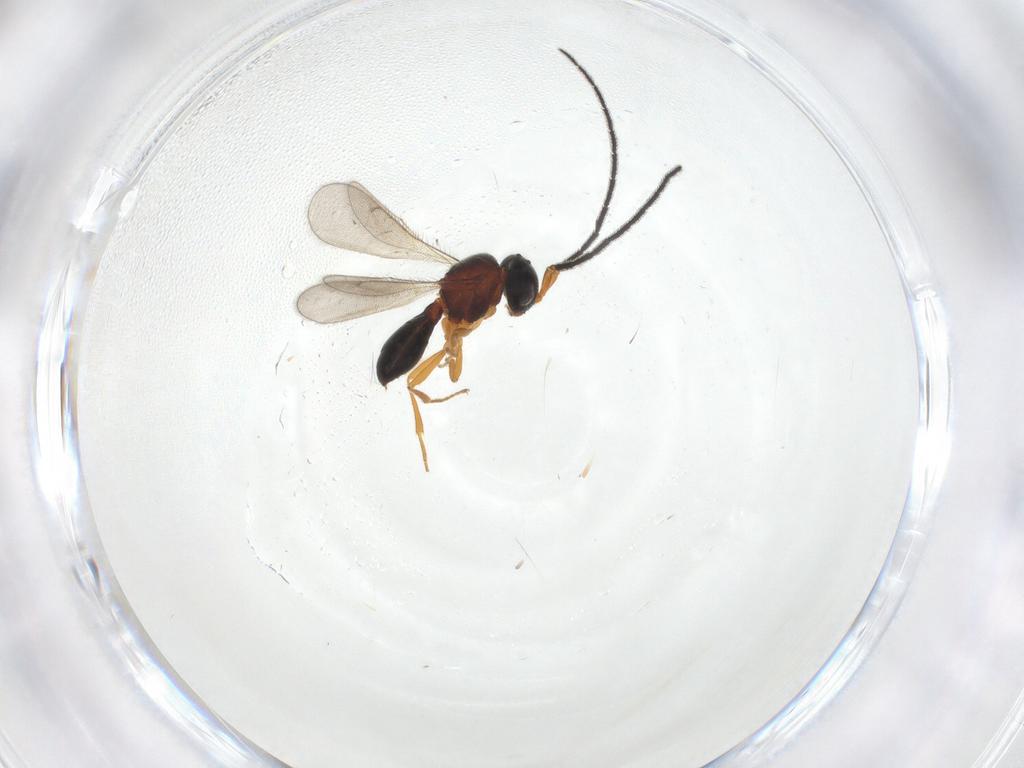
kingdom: Animalia
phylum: Arthropoda
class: Insecta
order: Hymenoptera
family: Scelionidae
